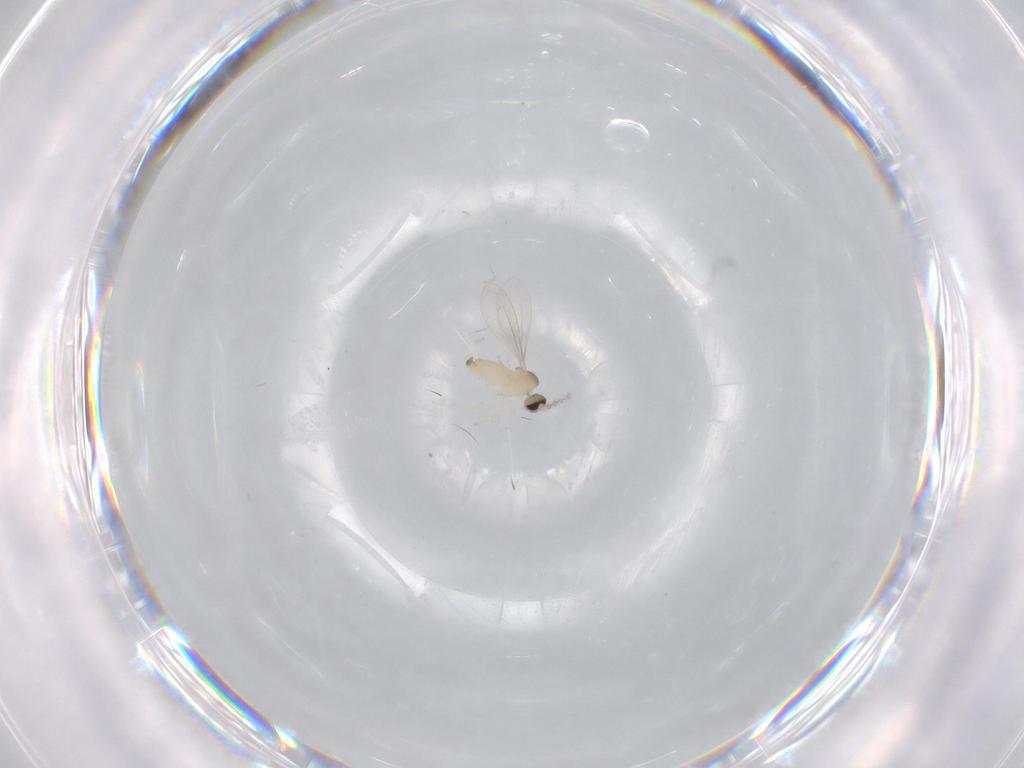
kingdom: Animalia
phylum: Arthropoda
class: Insecta
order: Diptera
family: Cecidomyiidae
